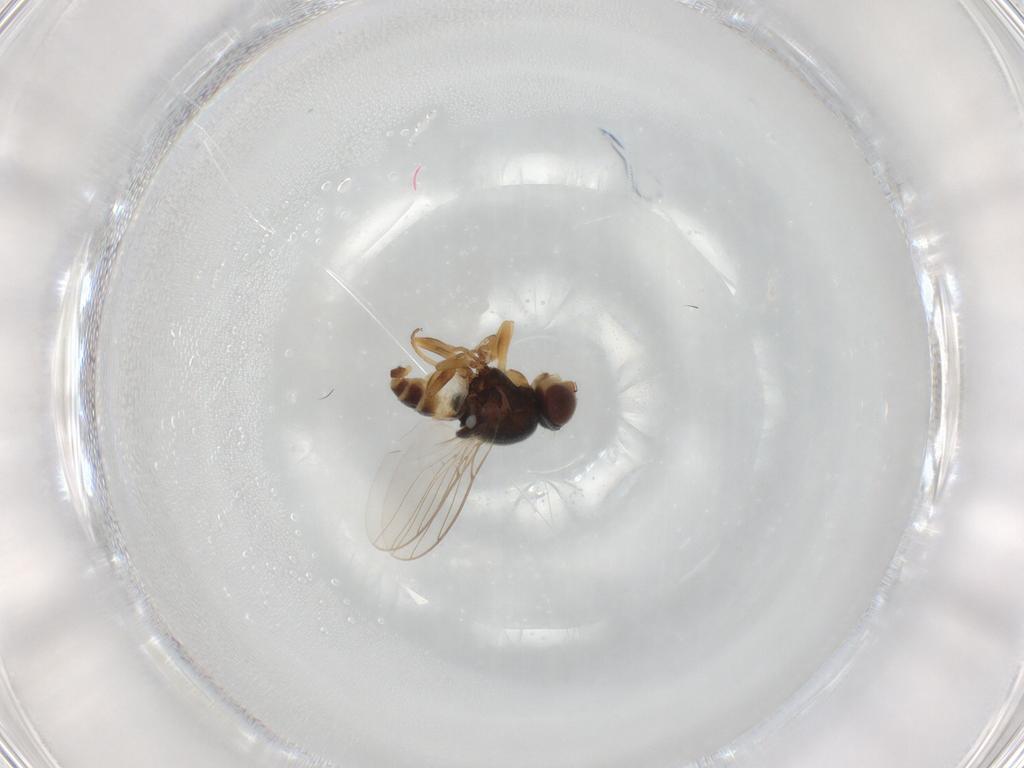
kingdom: Animalia
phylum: Arthropoda
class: Insecta
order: Diptera
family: Chloropidae
